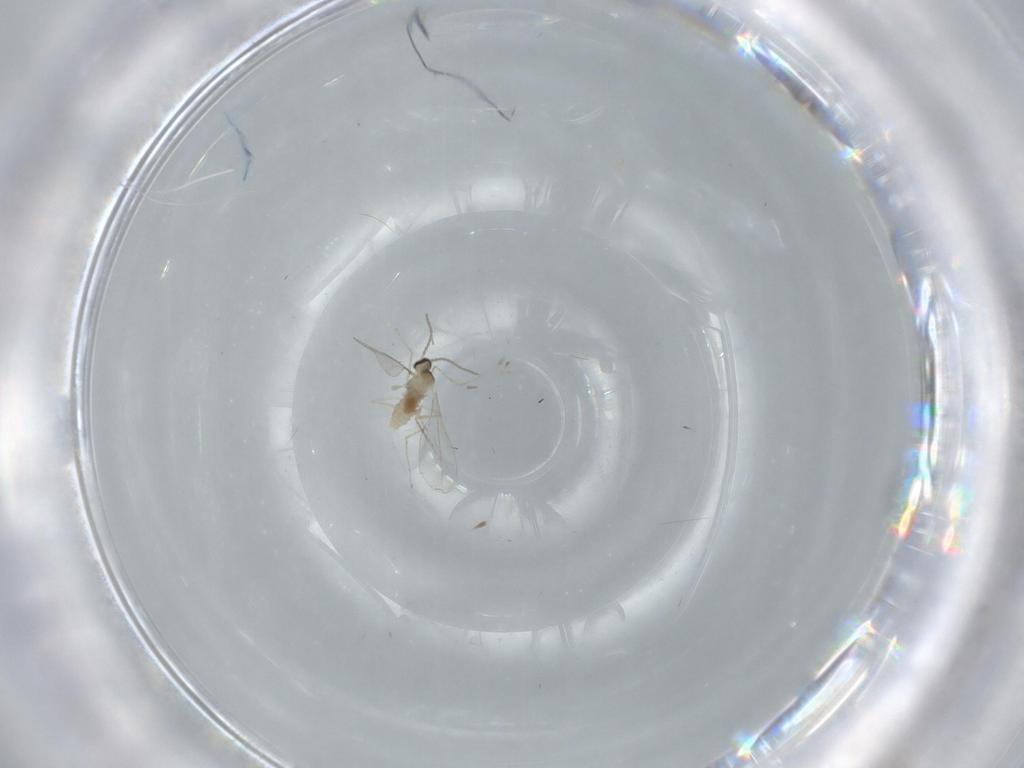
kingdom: Animalia
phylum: Arthropoda
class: Insecta
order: Diptera
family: Cecidomyiidae
